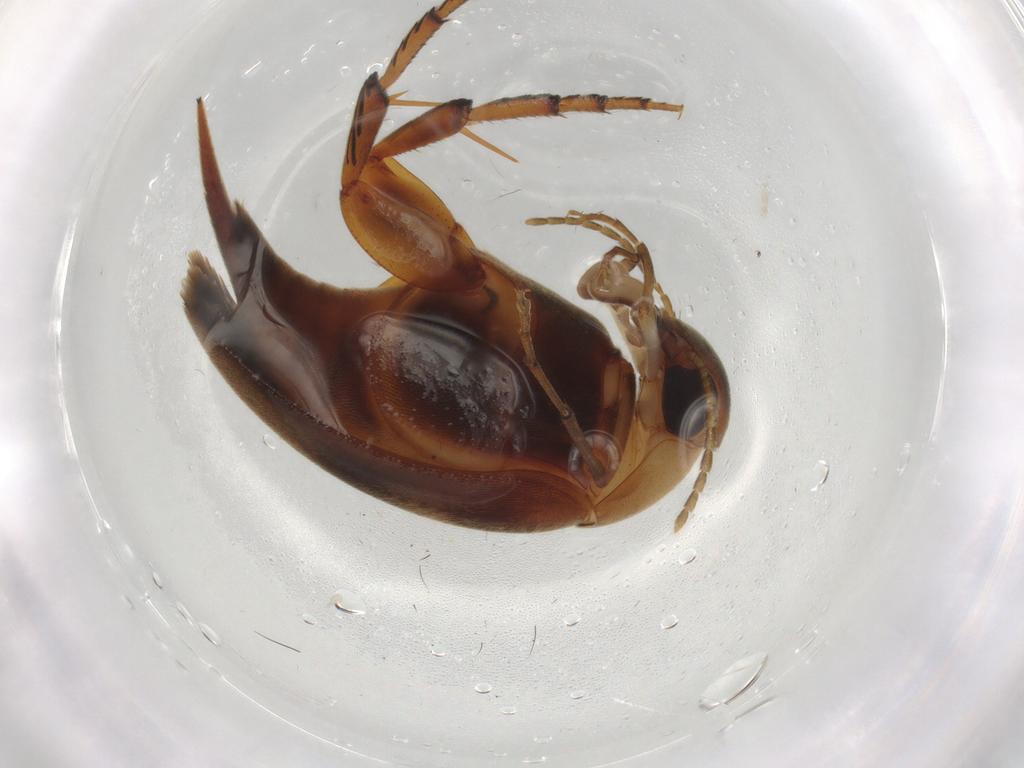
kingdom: Animalia
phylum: Arthropoda
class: Insecta
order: Coleoptera
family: Mordellidae
